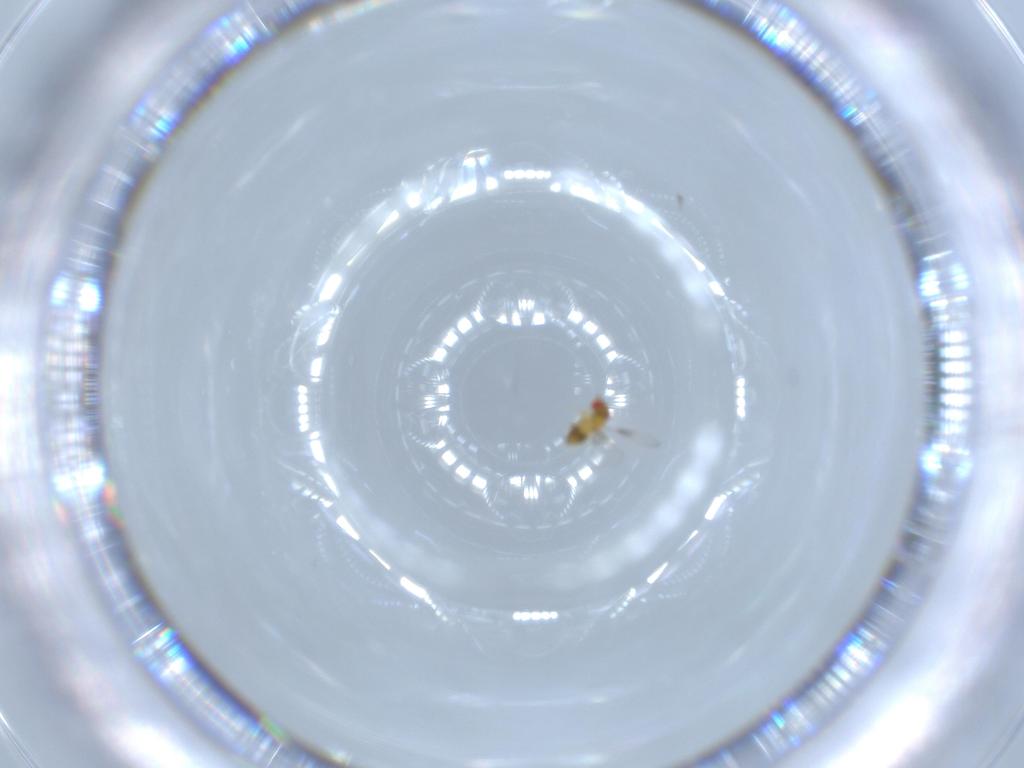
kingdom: Animalia
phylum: Arthropoda
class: Insecta
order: Hymenoptera
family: Trichogrammatidae
